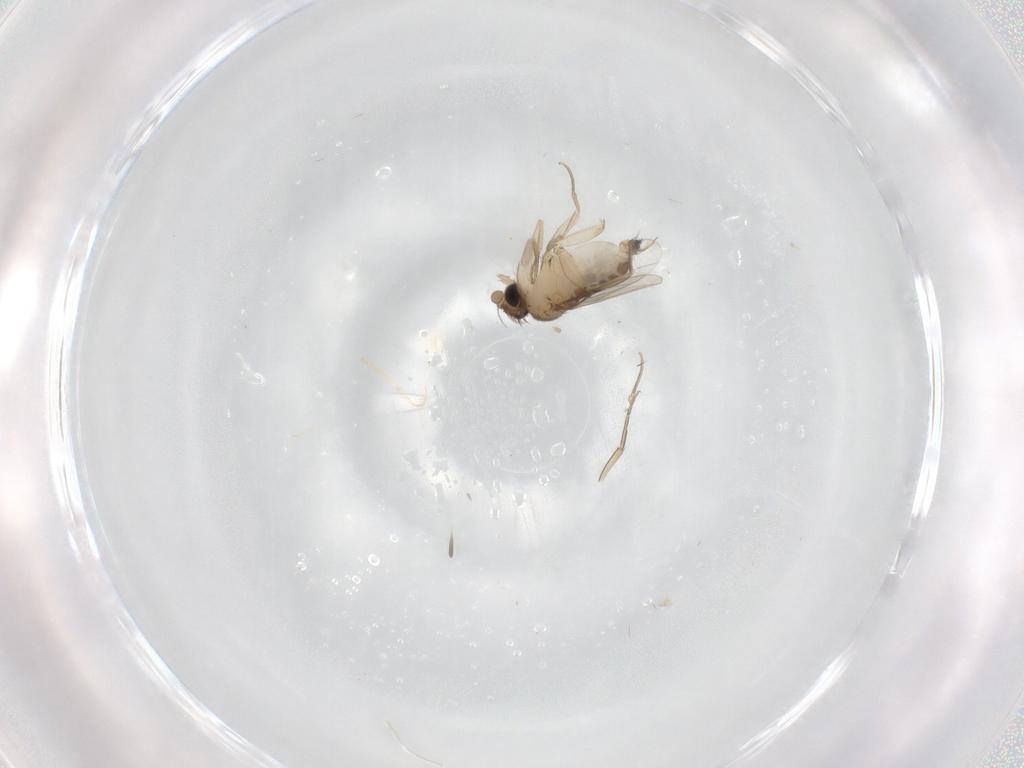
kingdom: Animalia
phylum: Arthropoda
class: Insecta
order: Diptera
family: Phoridae
